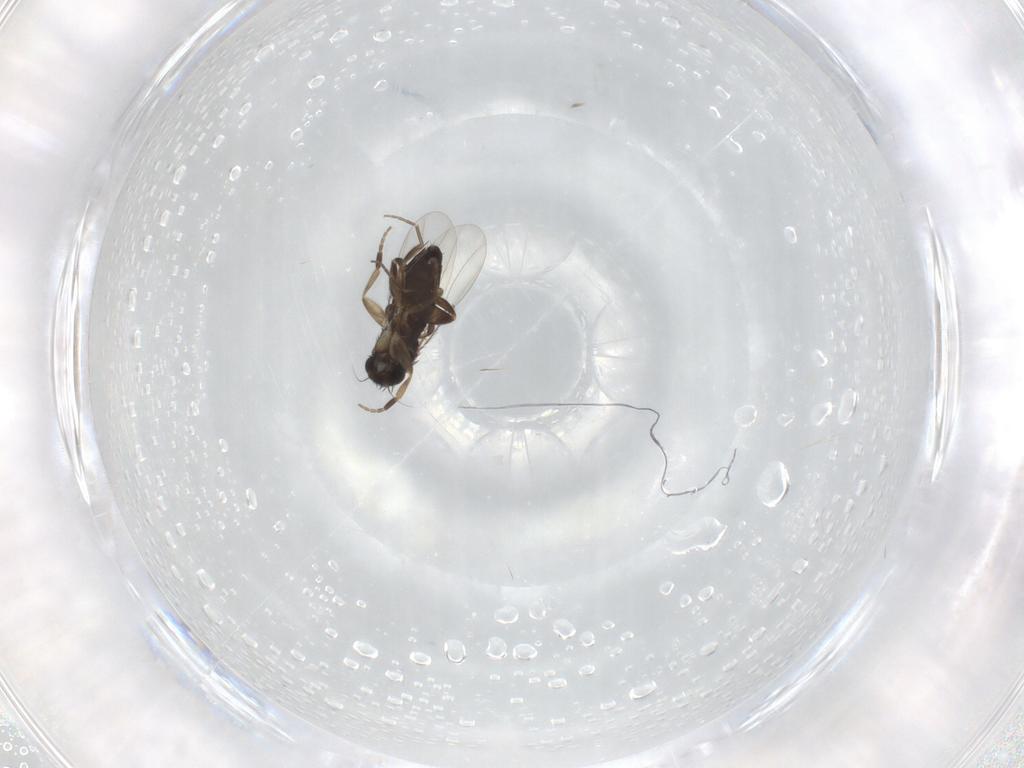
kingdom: Animalia
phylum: Arthropoda
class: Insecta
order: Diptera
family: Phoridae
